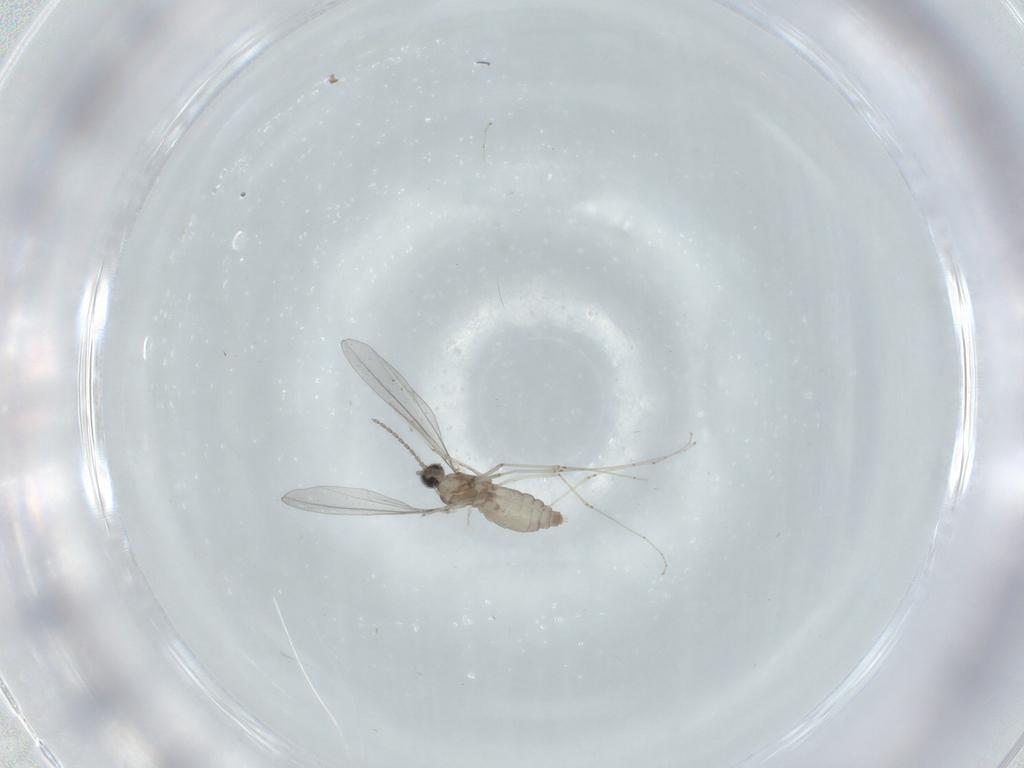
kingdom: Animalia
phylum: Arthropoda
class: Insecta
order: Diptera
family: Cecidomyiidae
